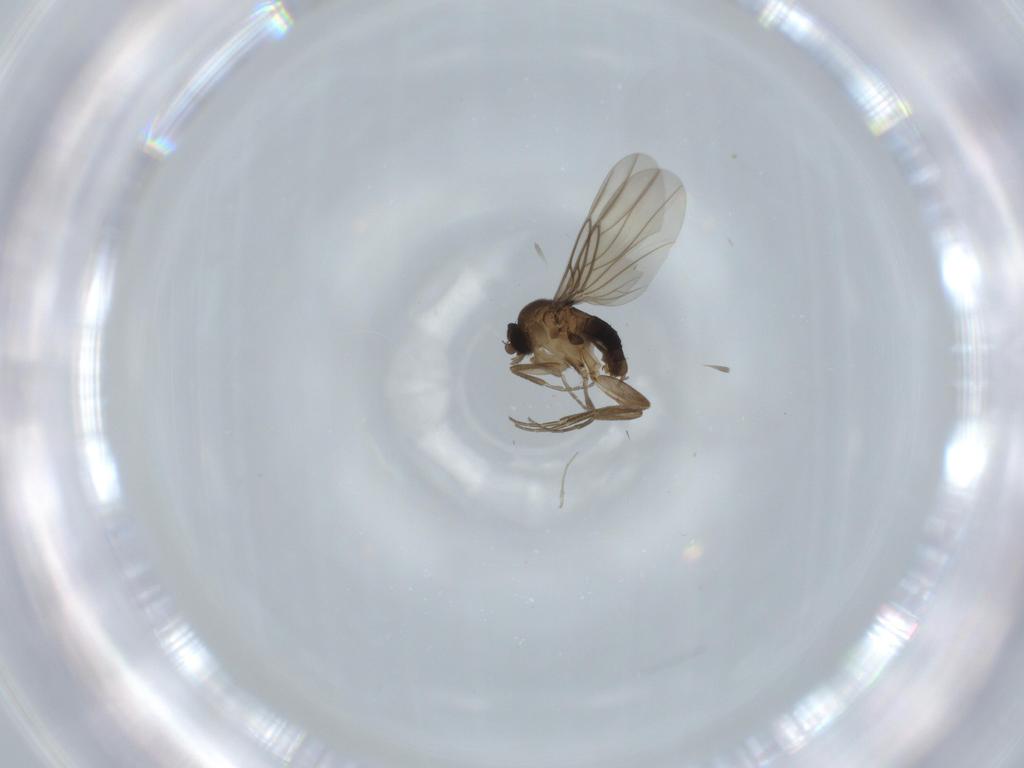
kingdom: Animalia
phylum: Arthropoda
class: Insecta
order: Diptera
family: Phoridae
